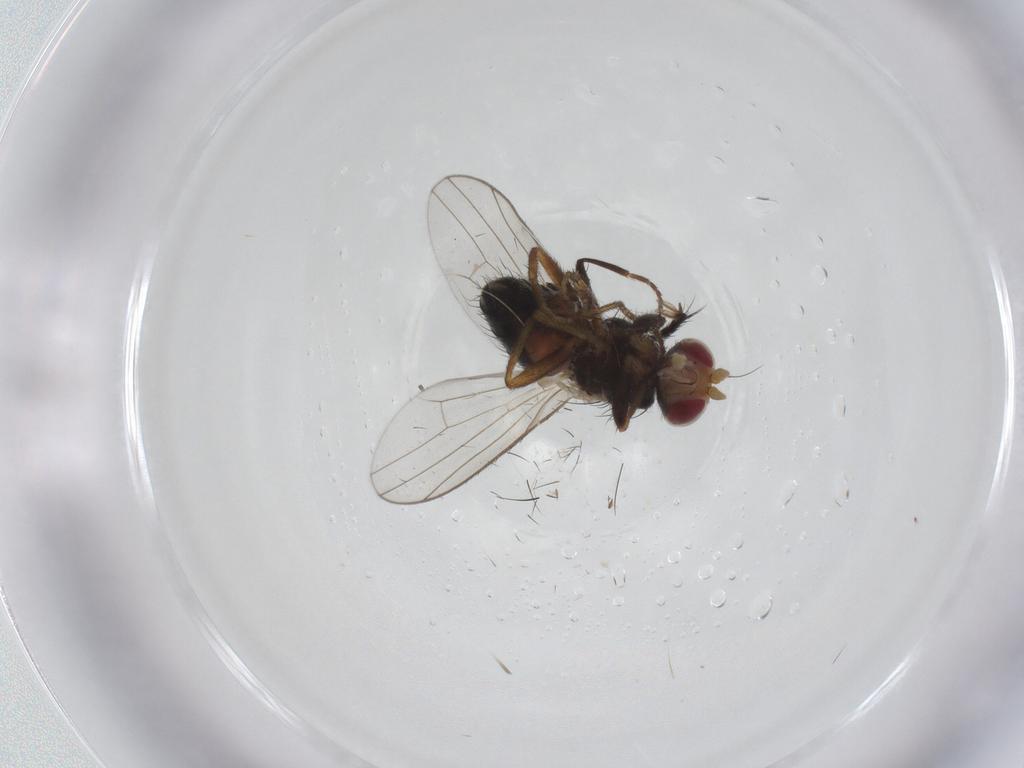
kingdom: Animalia
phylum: Arthropoda
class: Insecta
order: Diptera
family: Heleomyzidae
